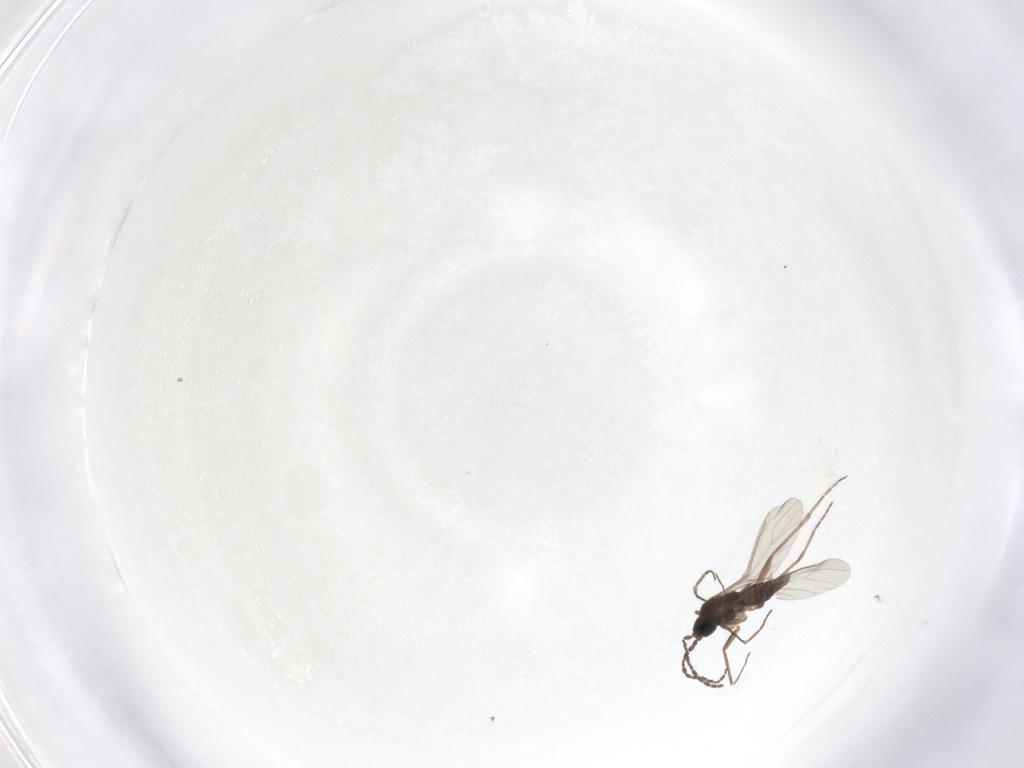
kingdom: Animalia
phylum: Arthropoda
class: Insecta
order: Diptera
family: Sciaridae
